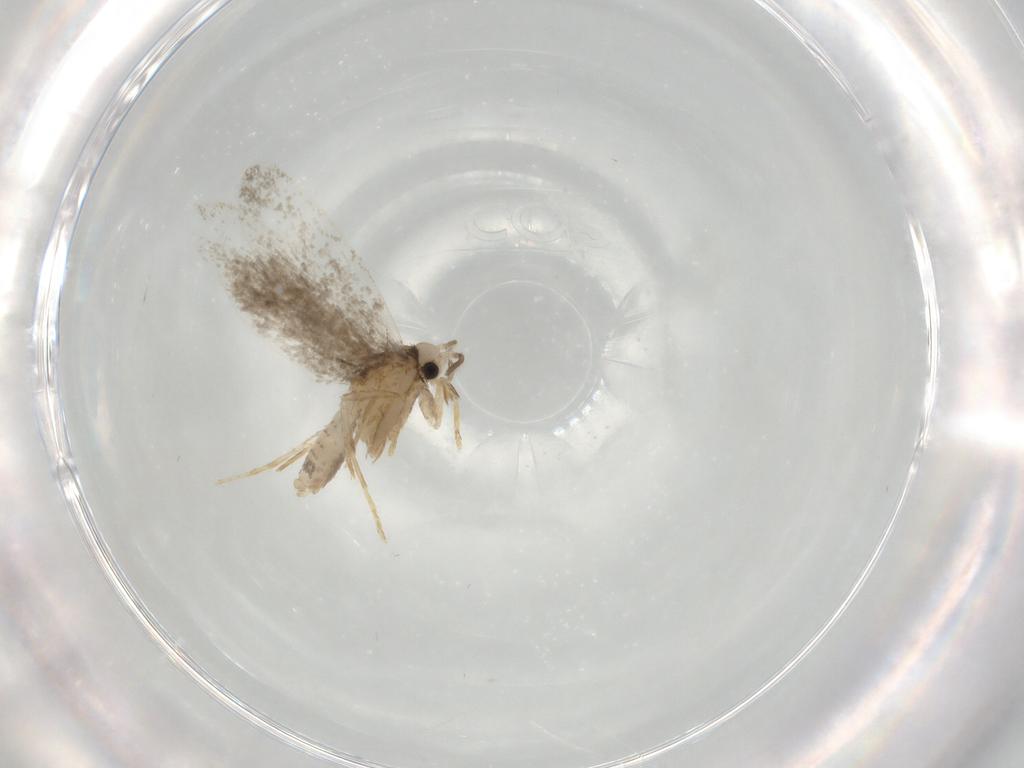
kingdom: Animalia
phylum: Arthropoda
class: Insecta
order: Lepidoptera
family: Psychidae
